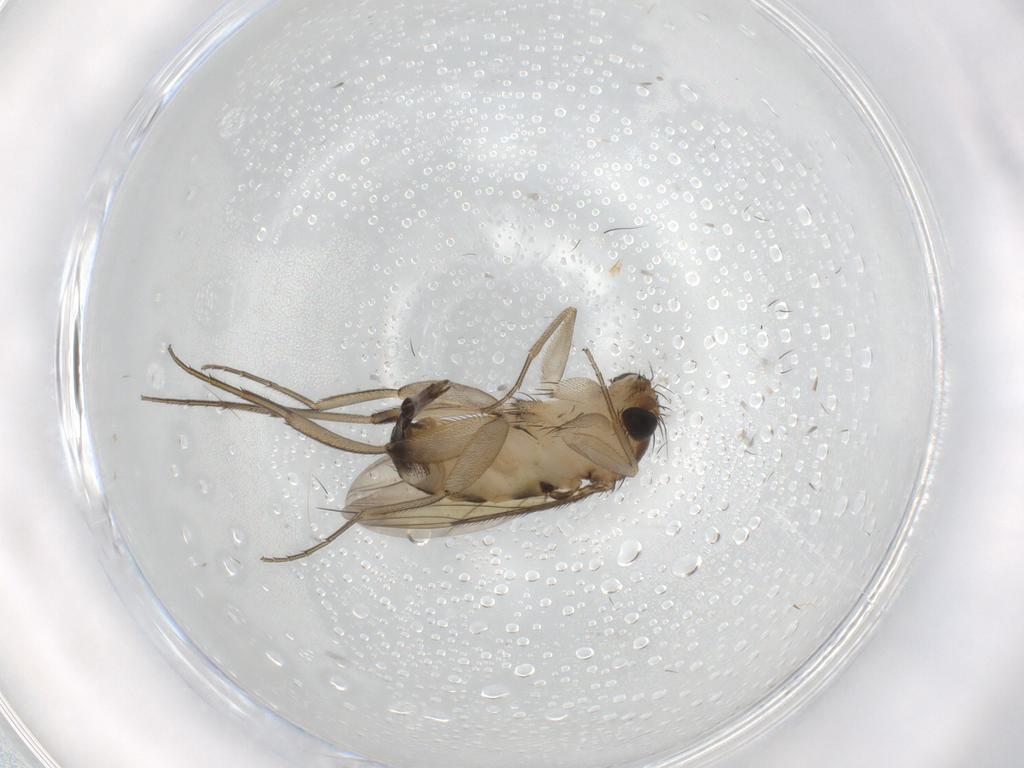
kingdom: Animalia
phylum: Arthropoda
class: Insecta
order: Diptera
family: Phoridae
